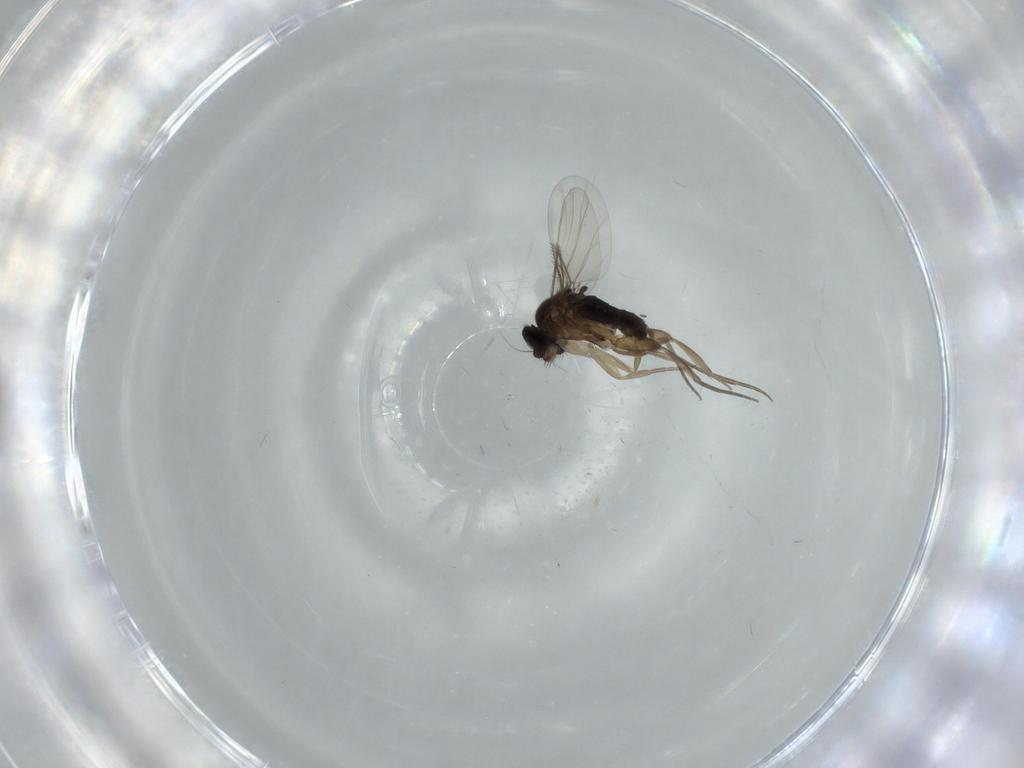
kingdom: Animalia
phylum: Arthropoda
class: Insecta
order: Diptera
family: Phoridae
